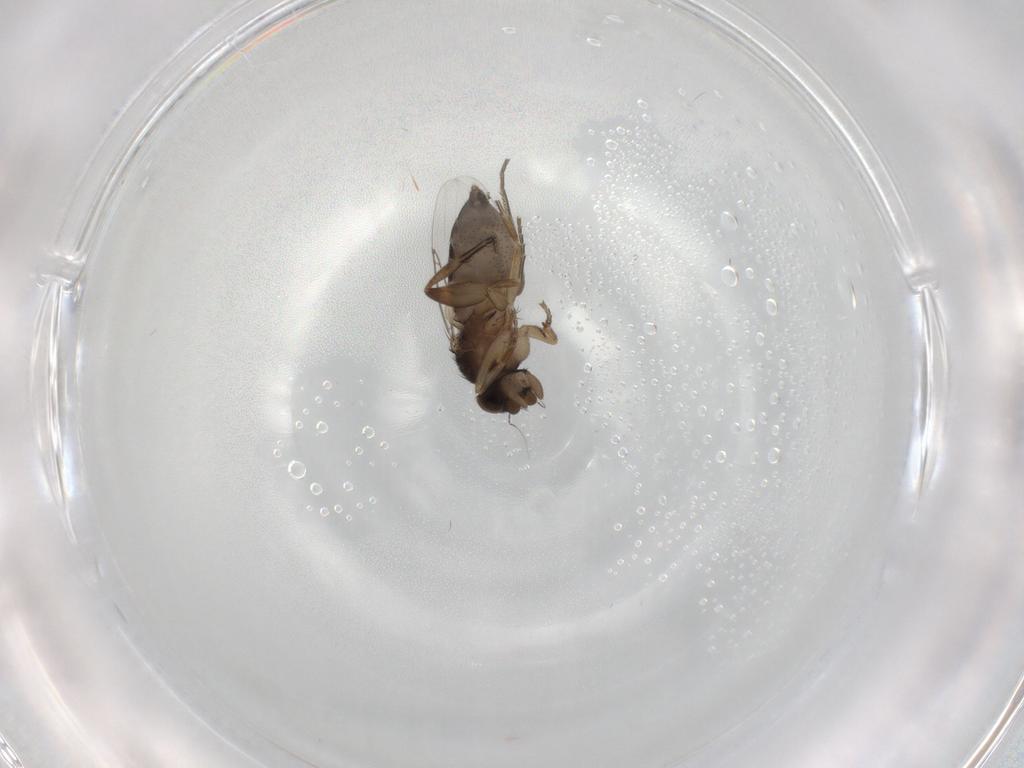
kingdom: Animalia
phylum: Arthropoda
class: Insecta
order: Diptera
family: Phoridae
